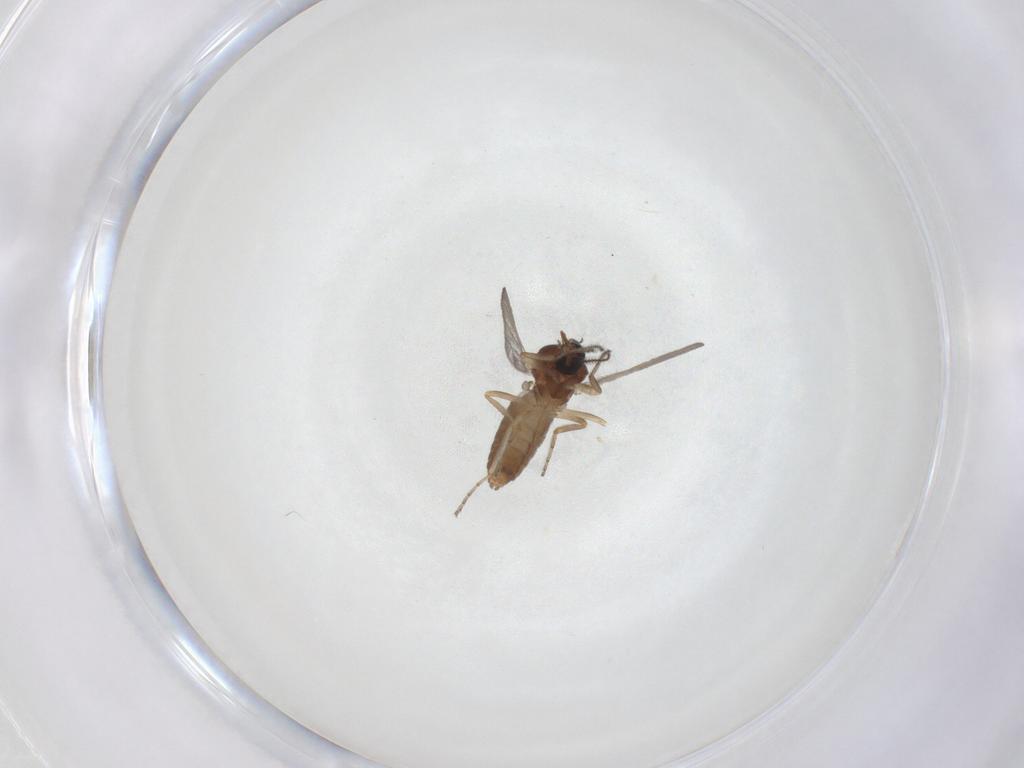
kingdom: Animalia
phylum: Arthropoda
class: Insecta
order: Diptera
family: Ceratopogonidae
